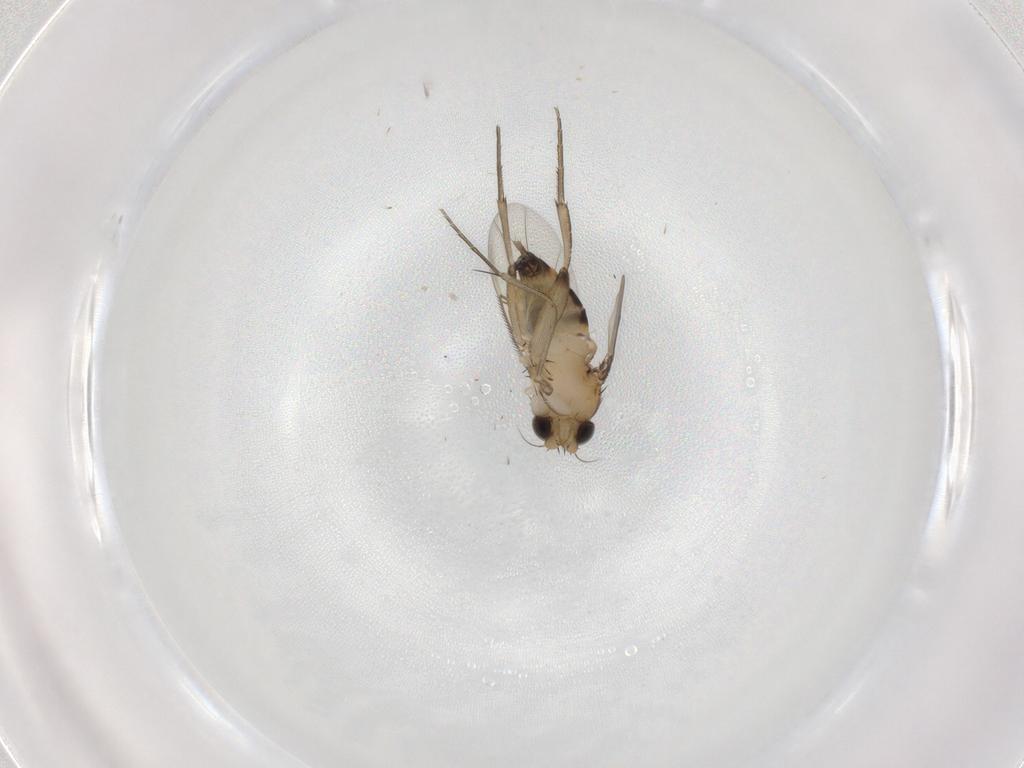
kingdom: Animalia
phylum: Arthropoda
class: Insecta
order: Diptera
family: Phoridae
